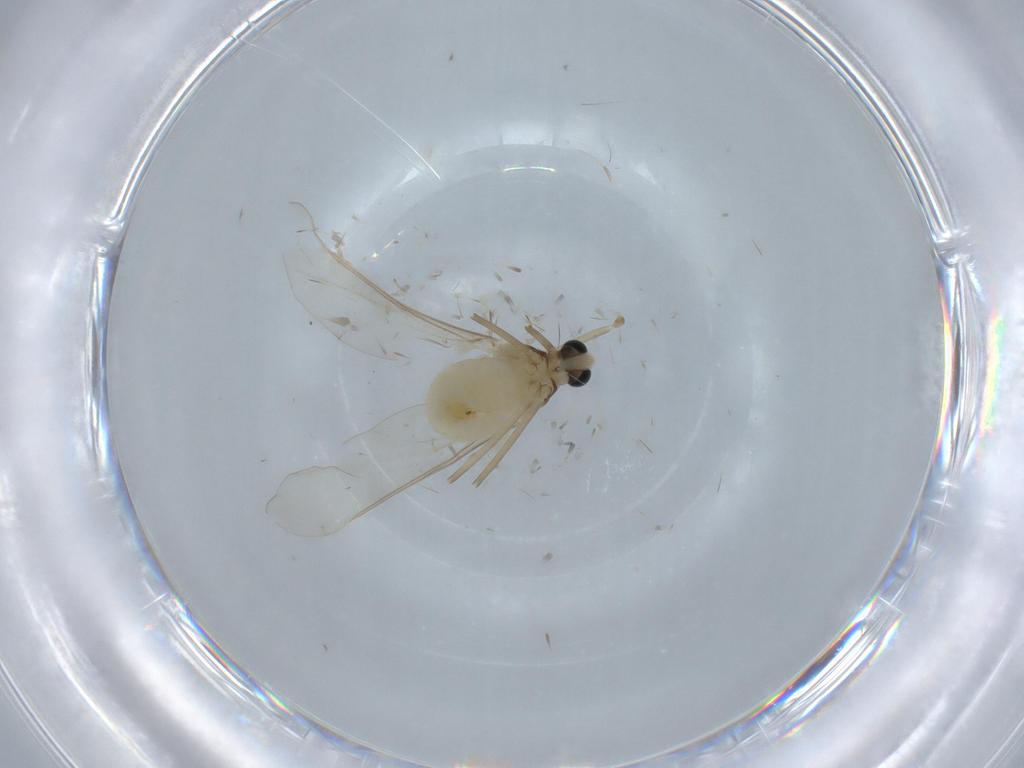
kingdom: Animalia
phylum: Arthropoda
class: Insecta
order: Diptera
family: Cecidomyiidae
